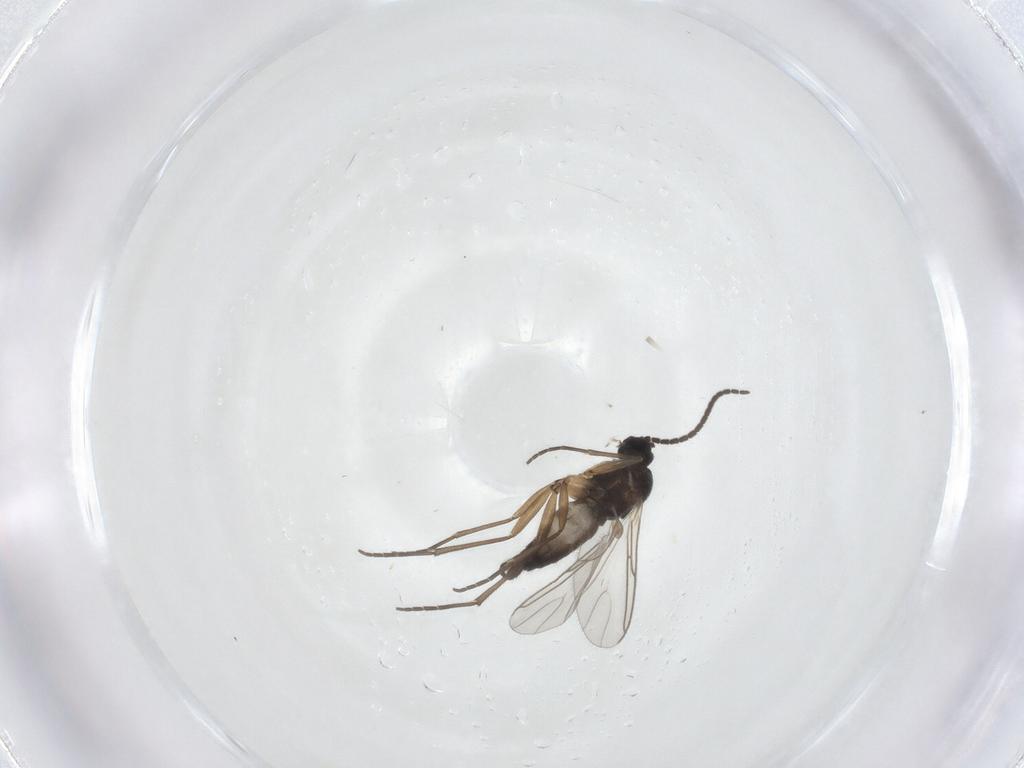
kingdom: Animalia
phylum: Arthropoda
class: Insecta
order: Diptera
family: Sciaridae
